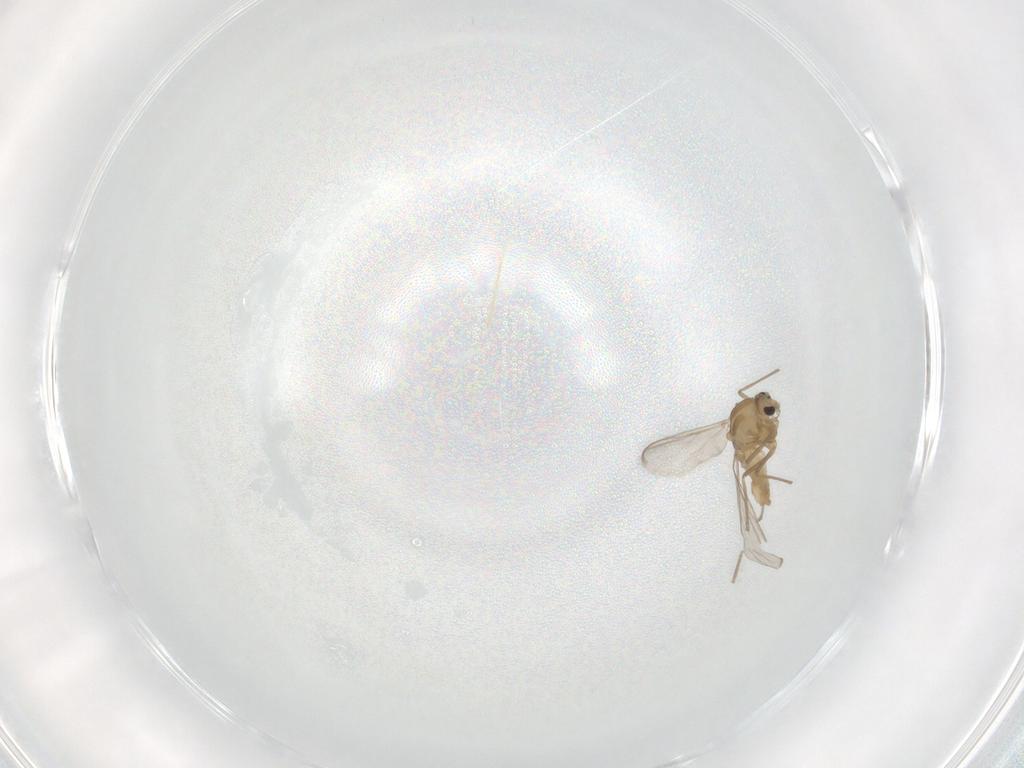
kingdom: Animalia
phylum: Arthropoda
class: Insecta
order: Diptera
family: Chironomidae
